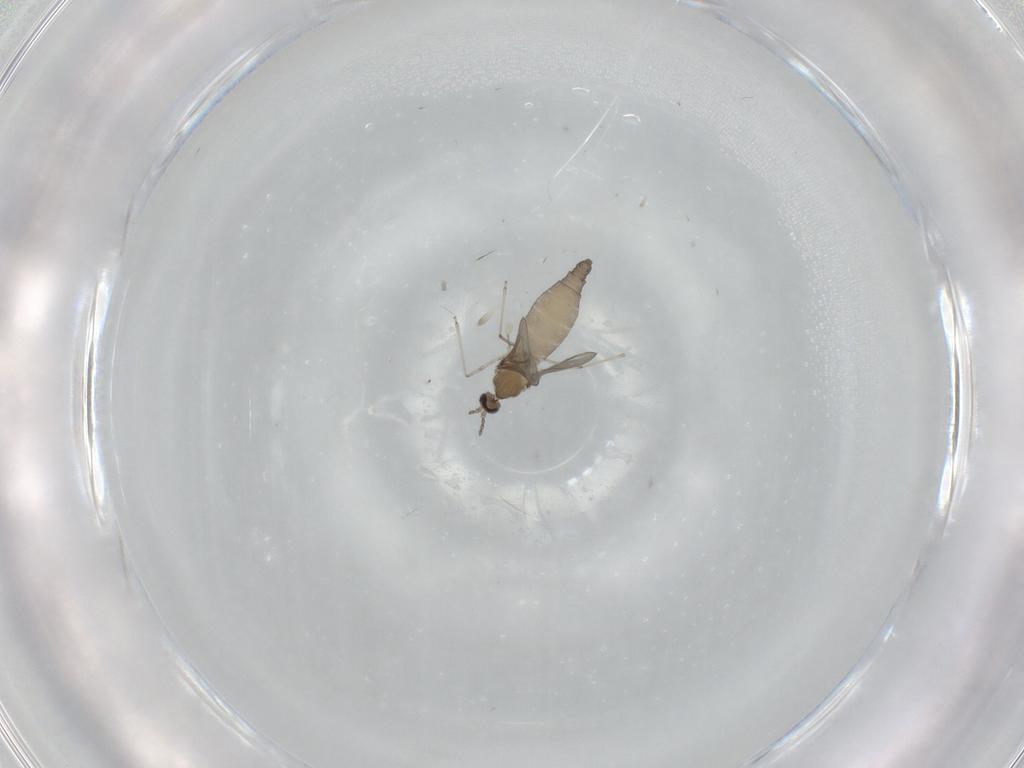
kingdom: Animalia
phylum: Arthropoda
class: Insecta
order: Diptera
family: Cecidomyiidae
